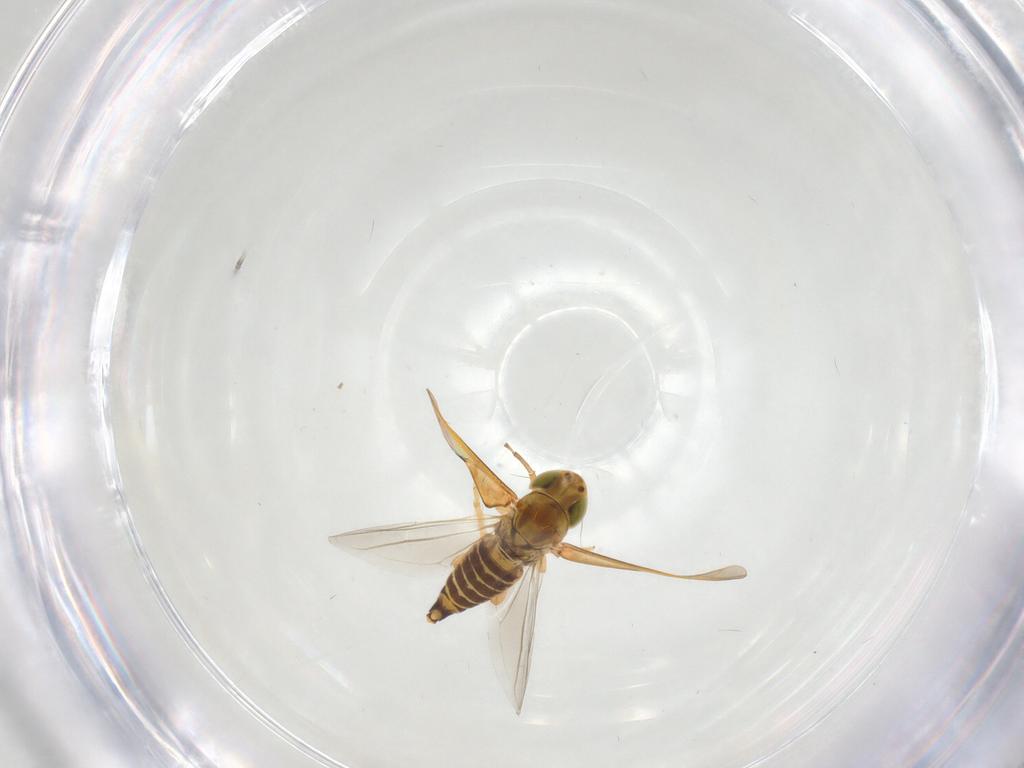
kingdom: Animalia
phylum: Arthropoda
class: Insecta
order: Hemiptera
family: Cicadellidae
